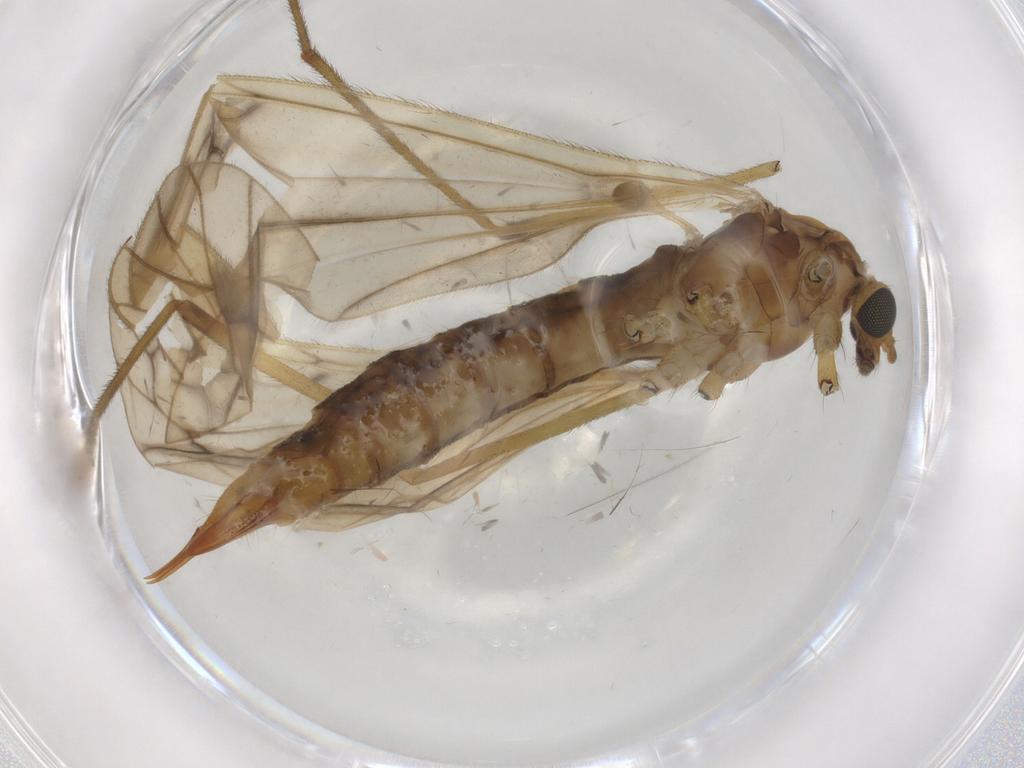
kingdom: Animalia
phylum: Arthropoda
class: Insecta
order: Diptera
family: Limoniidae
